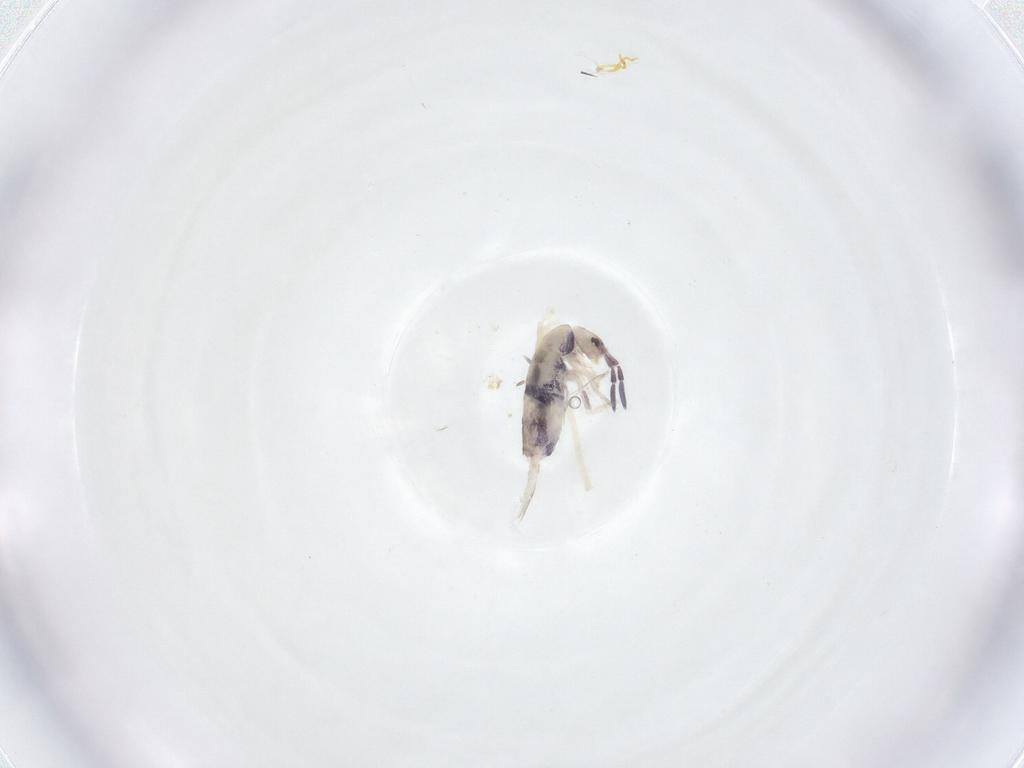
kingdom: Animalia
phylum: Arthropoda
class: Collembola
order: Entomobryomorpha
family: Entomobryidae
